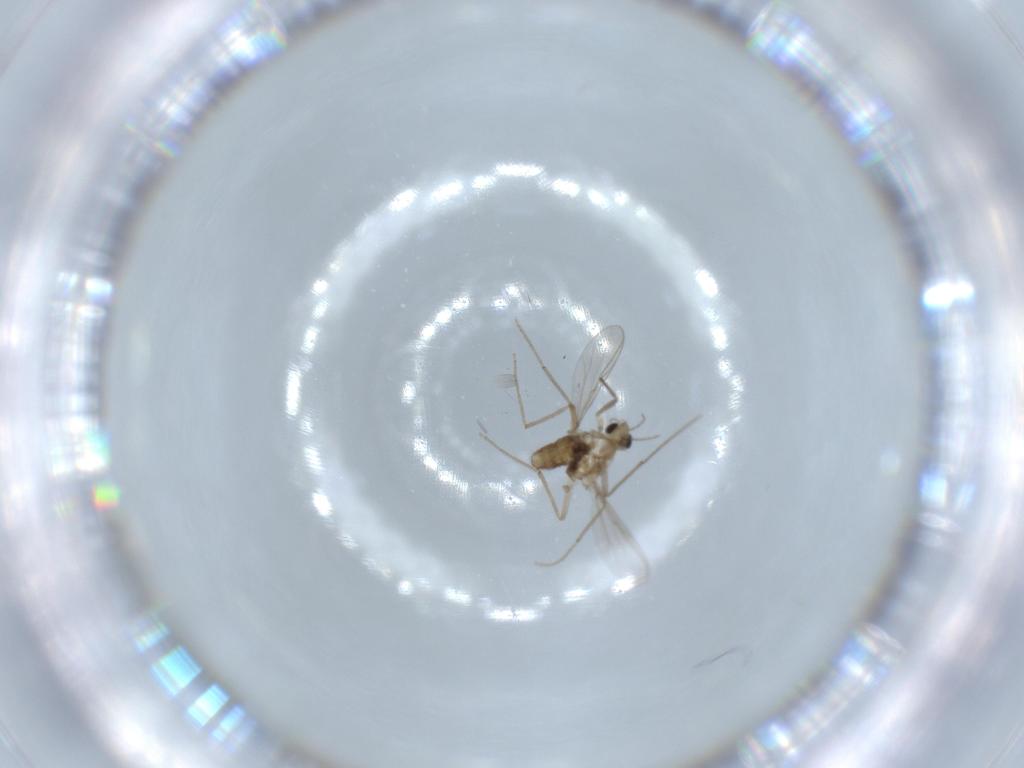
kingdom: Animalia
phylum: Arthropoda
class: Insecta
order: Diptera
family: Chironomidae
